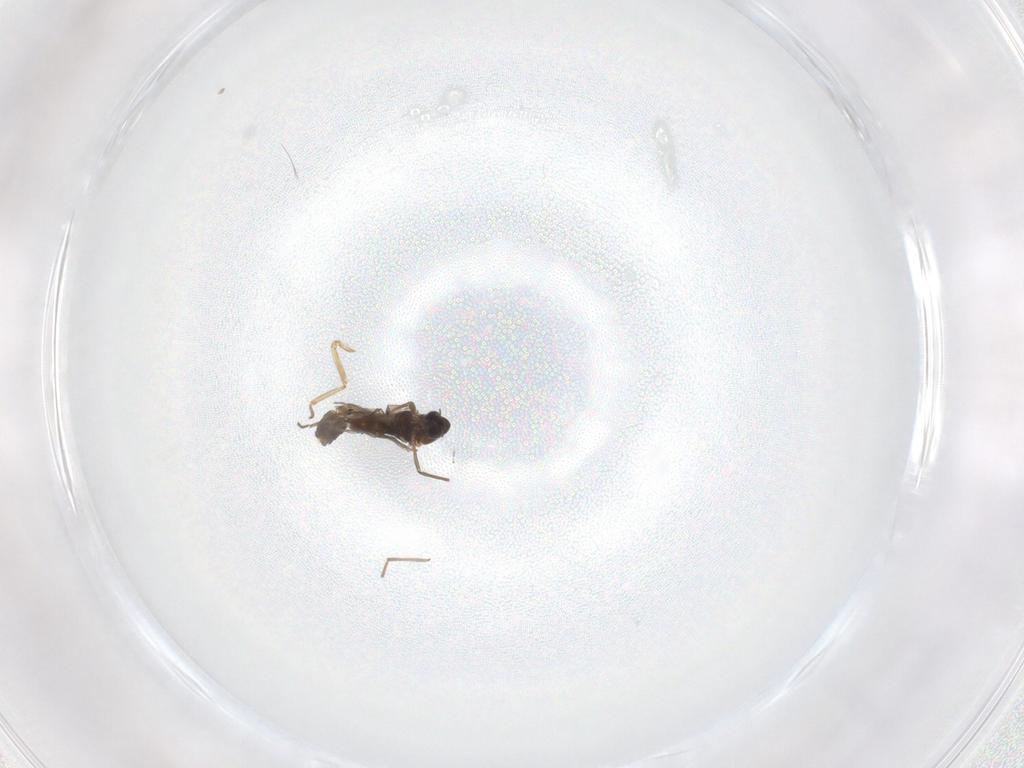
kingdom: Animalia
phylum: Arthropoda
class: Insecta
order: Diptera
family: Chironomidae
